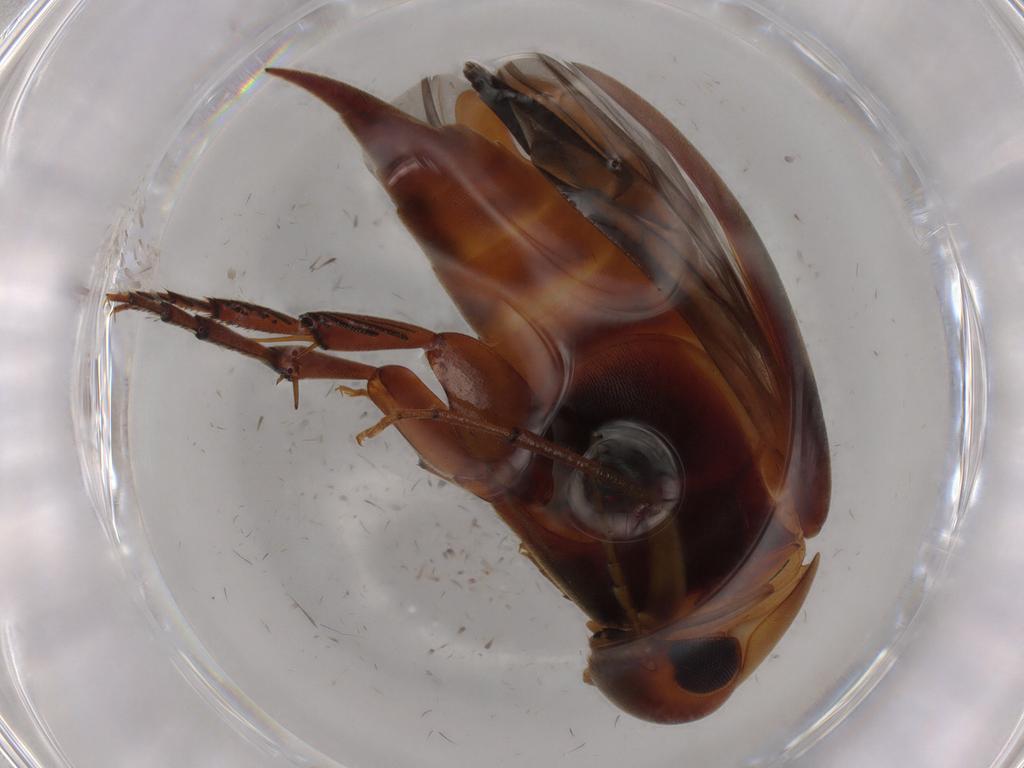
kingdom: Animalia
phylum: Arthropoda
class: Insecta
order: Coleoptera
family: Mordellidae
